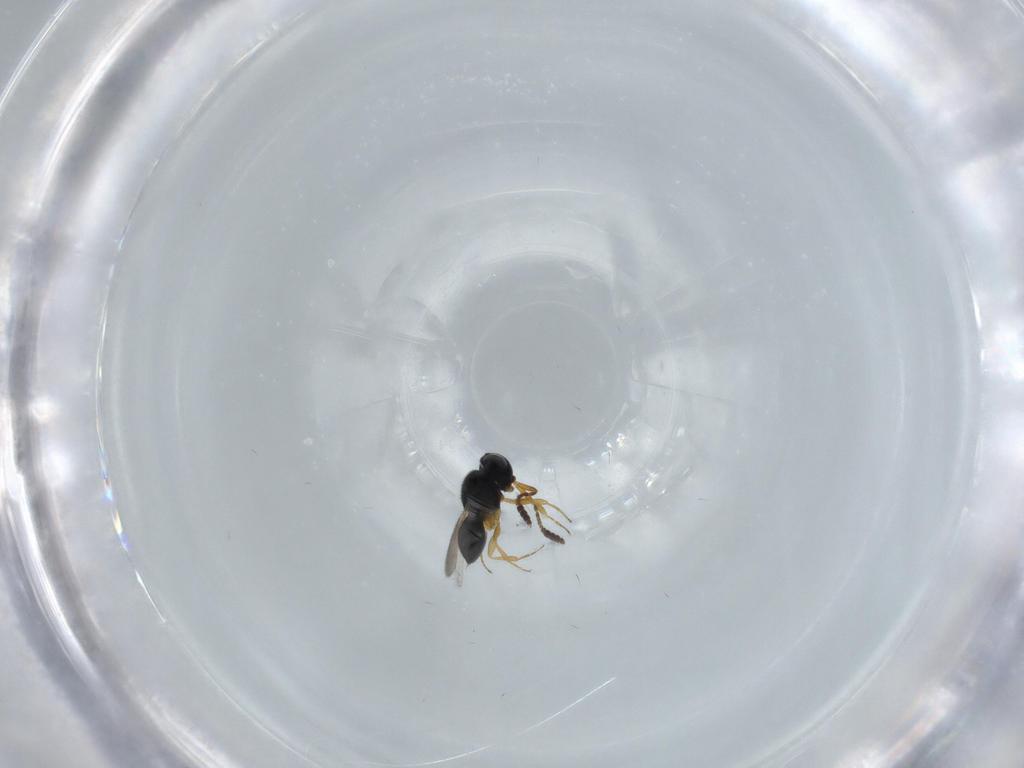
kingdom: Animalia
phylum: Arthropoda
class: Insecta
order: Hymenoptera
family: Scelionidae
